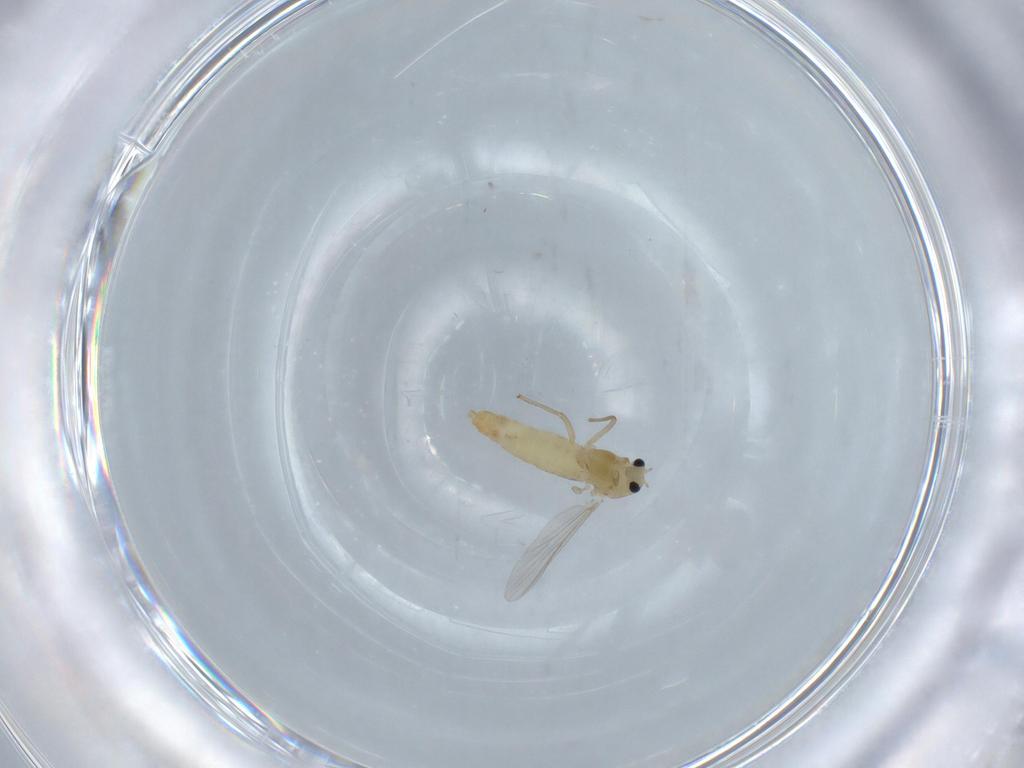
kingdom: Animalia
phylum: Arthropoda
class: Insecta
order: Diptera
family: Chironomidae
